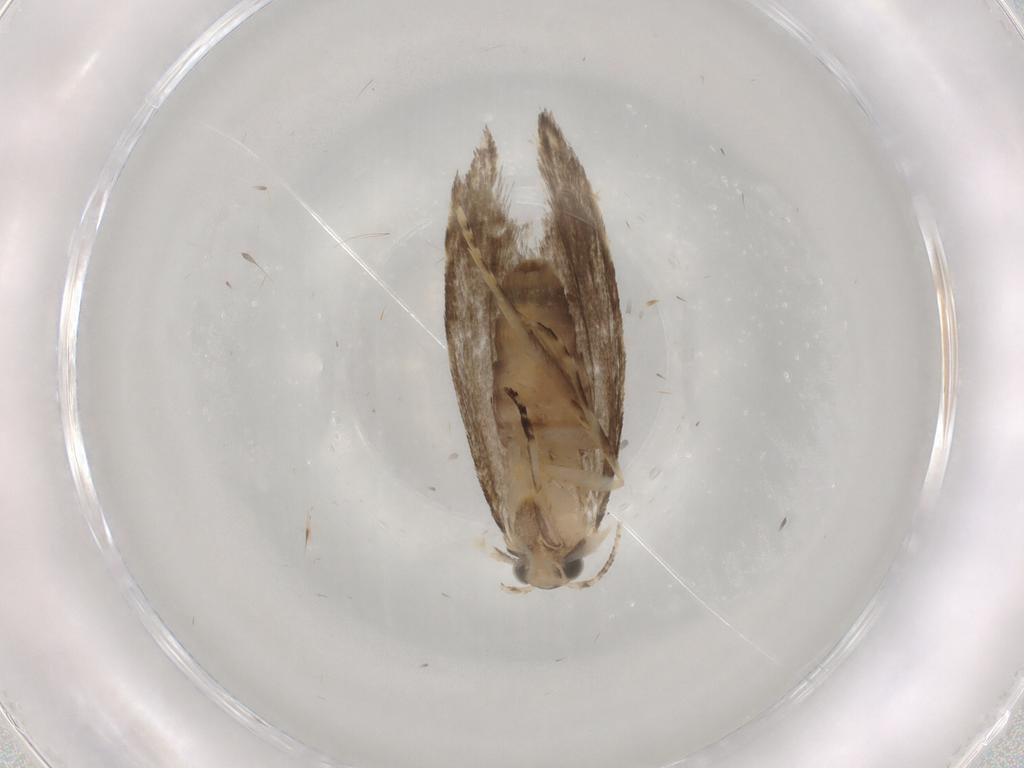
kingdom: Animalia
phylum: Arthropoda
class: Insecta
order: Lepidoptera
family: Tineidae
